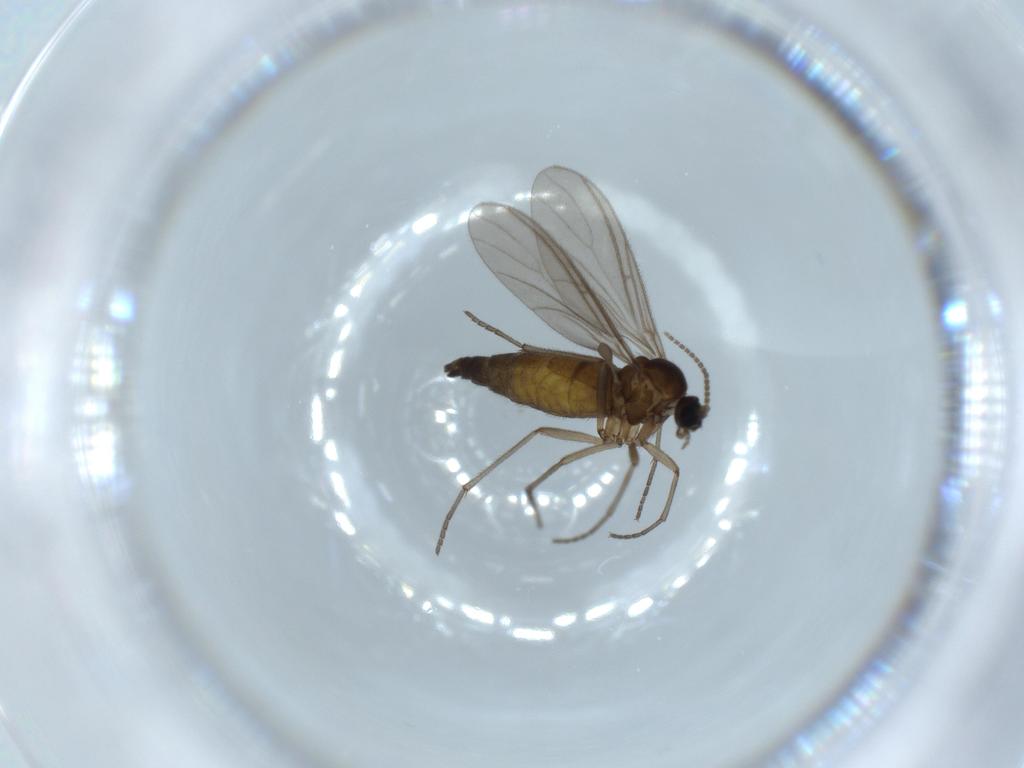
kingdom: Animalia
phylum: Arthropoda
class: Insecta
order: Diptera
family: Sciaridae
